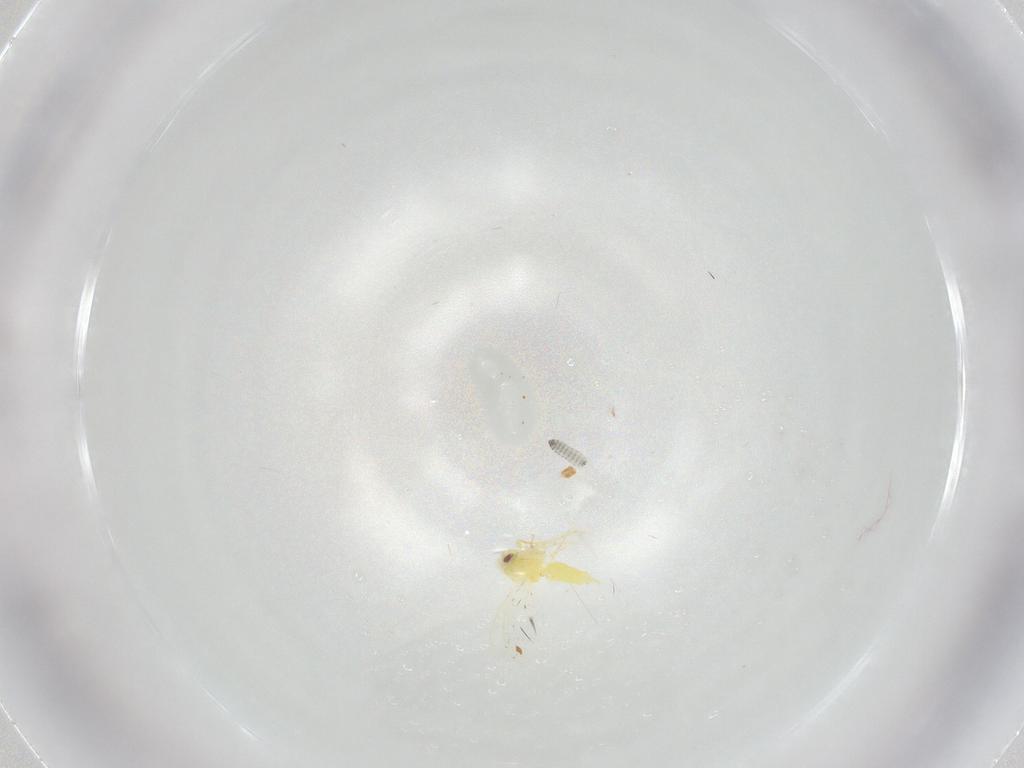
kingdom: Animalia
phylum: Arthropoda
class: Insecta
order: Hemiptera
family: Aleyrodidae
